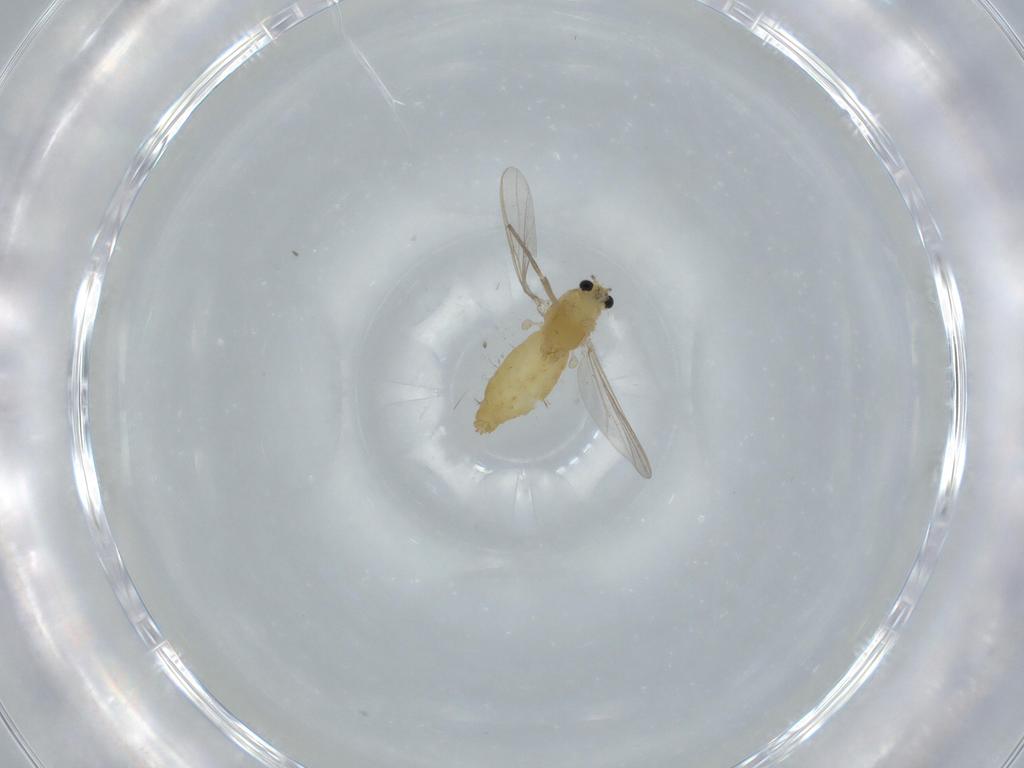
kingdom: Animalia
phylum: Arthropoda
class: Insecta
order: Diptera
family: Chironomidae
